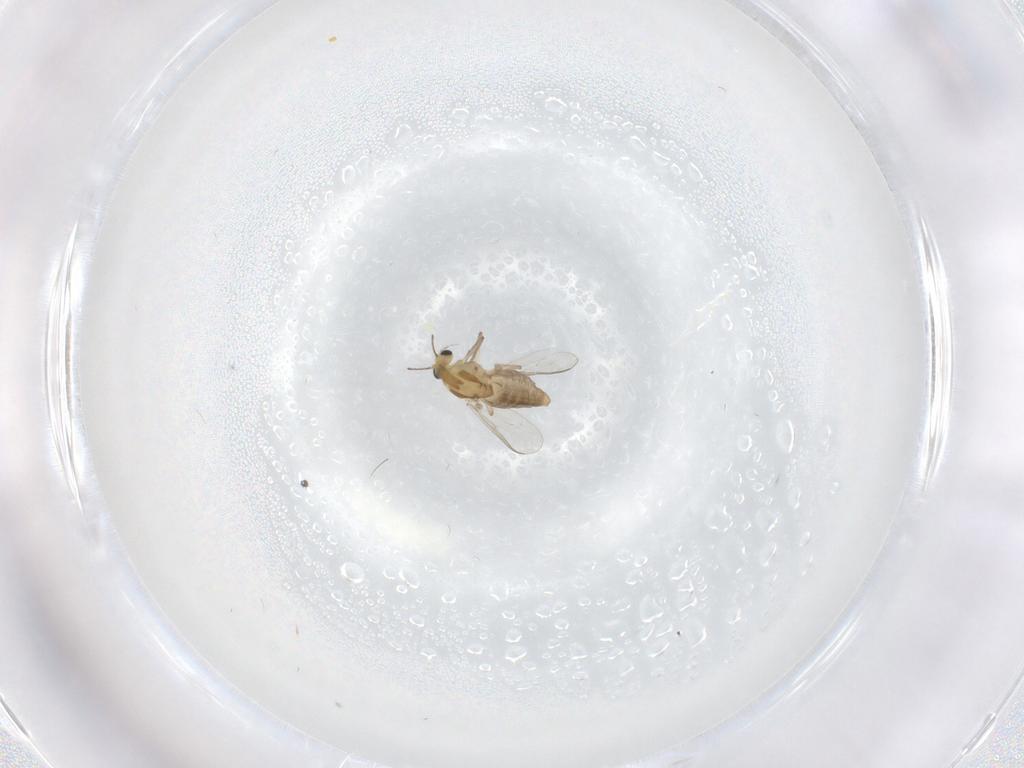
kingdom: Animalia
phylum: Arthropoda
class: Insecta
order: Diptera
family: Chironomidae
